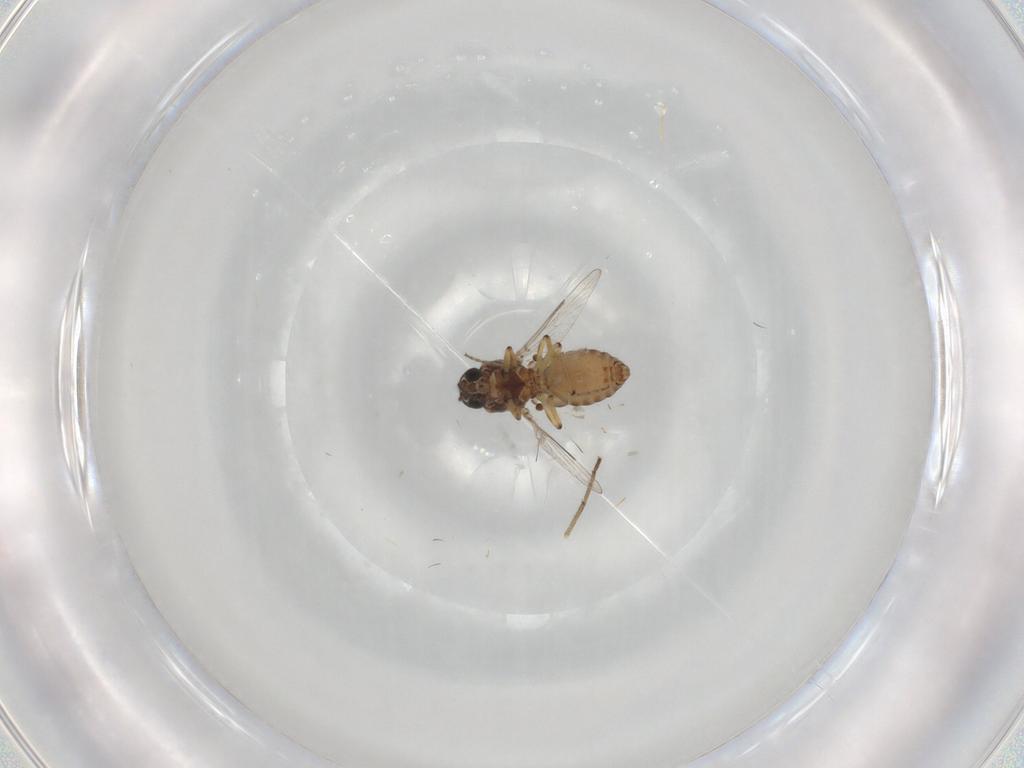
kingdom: Animalia
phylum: Arthropoda
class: Insecta
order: Diptera
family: Ceratopogonidae
